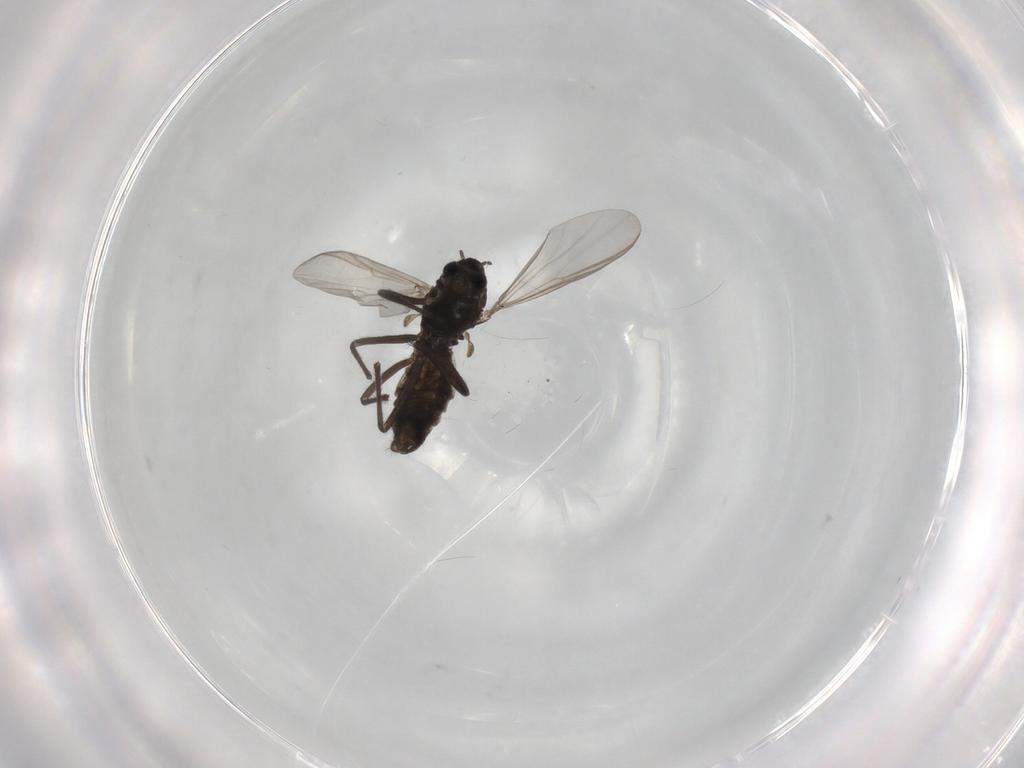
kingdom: Animalia
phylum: Arthropoda
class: Insecta
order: Diptera
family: Chironomidae
